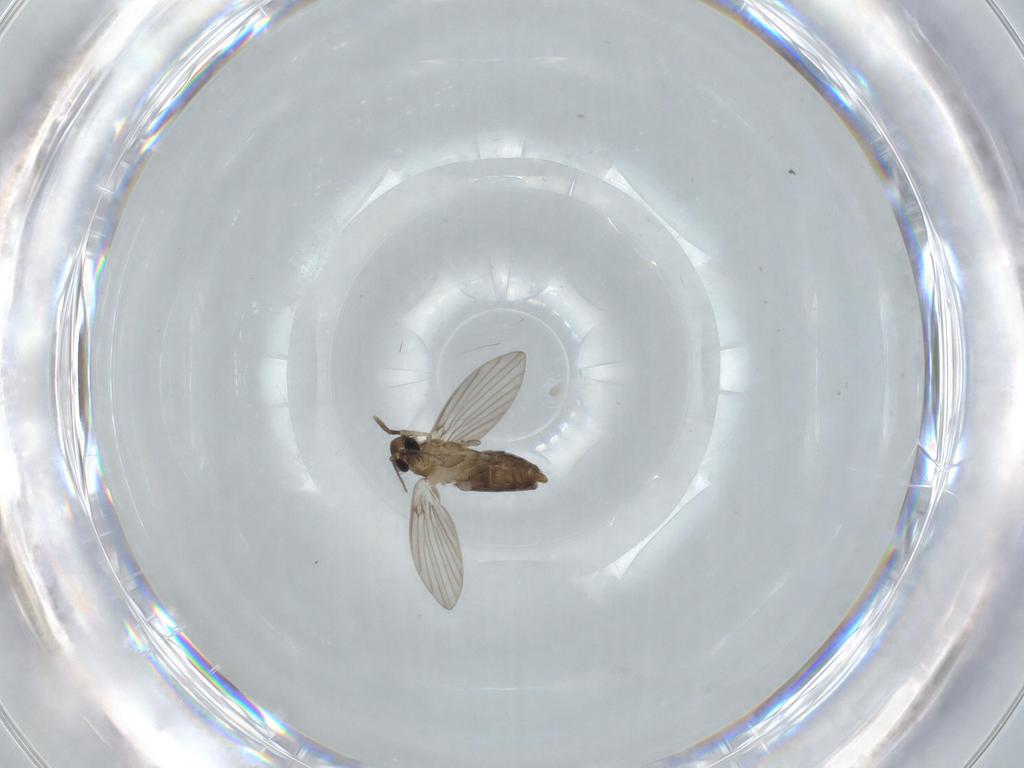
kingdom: Animalia
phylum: Arthropoda
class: Insecta
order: Diptera
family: Psychodidae
